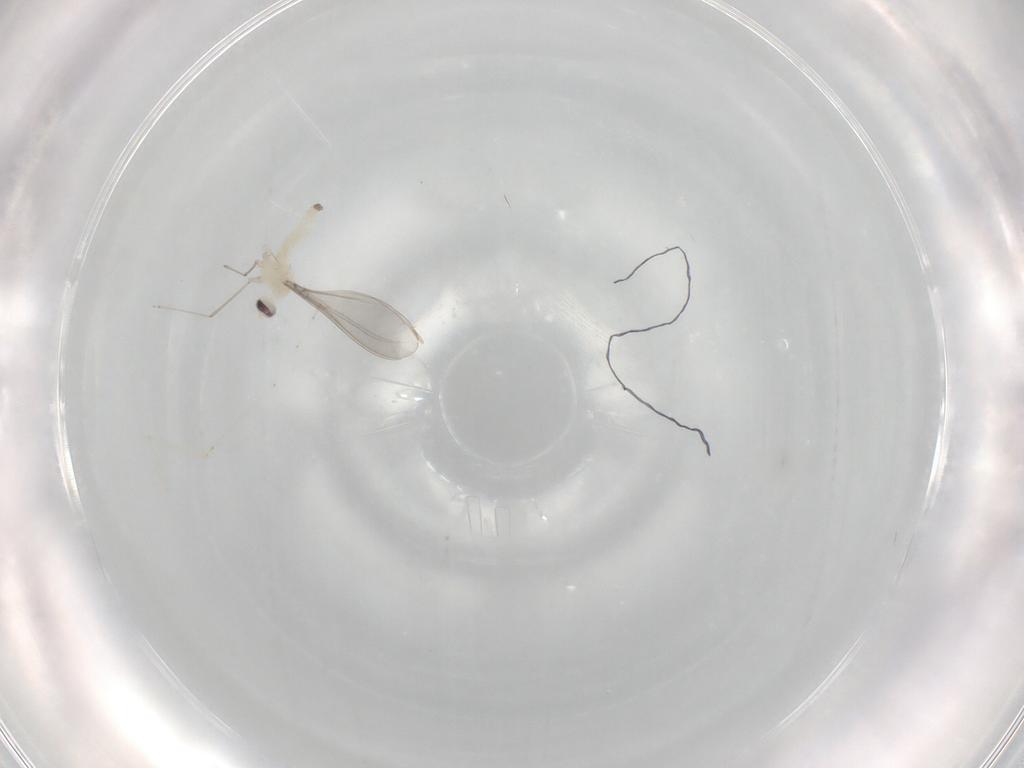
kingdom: Animalia
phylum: Arthropoda
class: Insecta
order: Diptera
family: Cecidomyiidae
